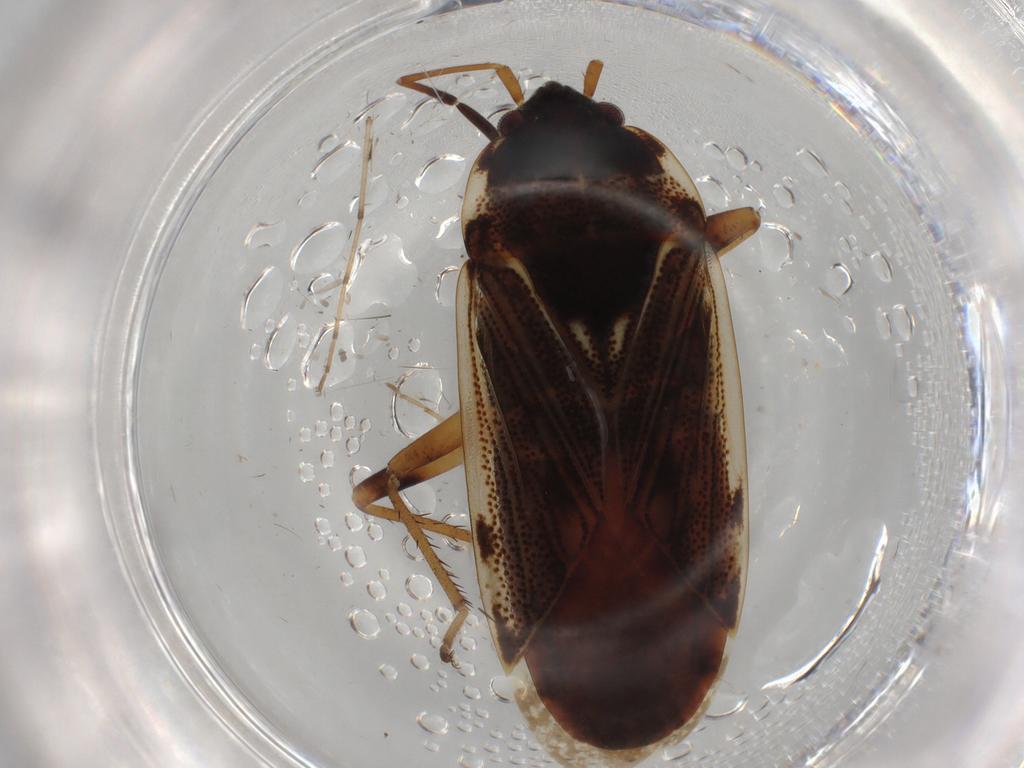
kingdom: Animalia
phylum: Arthropoda
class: Insecta
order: Hemiptera
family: Rhyparochromidae
